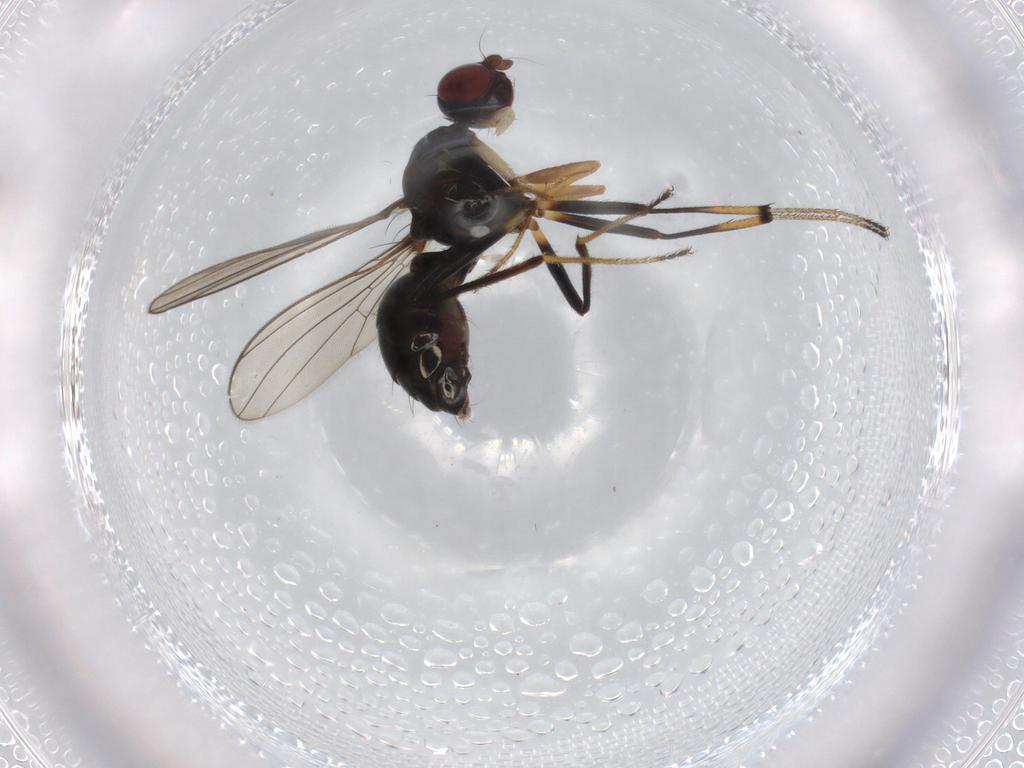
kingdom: Animalia
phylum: Arthropoda
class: Insecta
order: Diptera
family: Sepsidae
